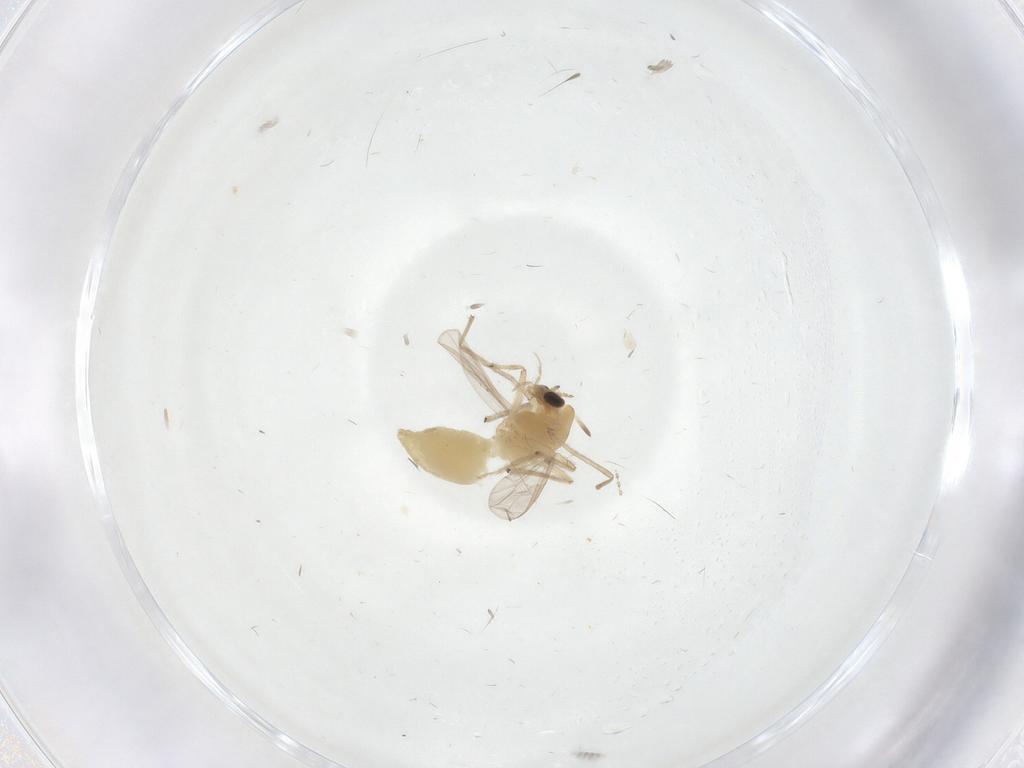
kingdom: Animalia
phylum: Arthropoda
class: Insecta
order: Diptera
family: Chironomidae
